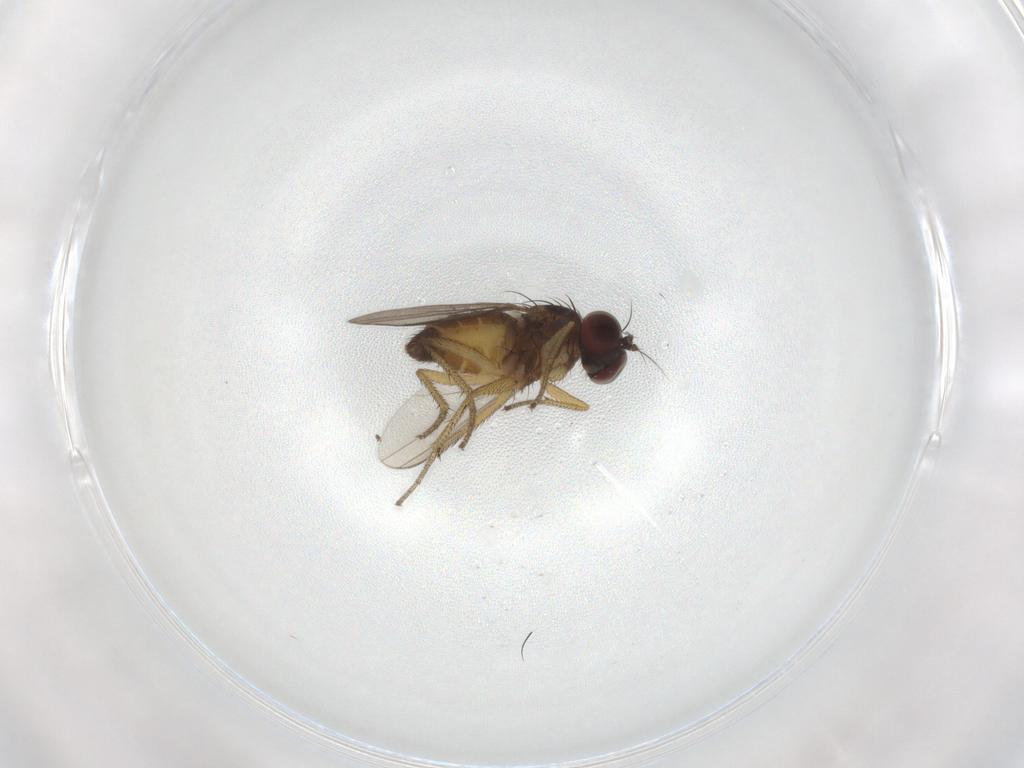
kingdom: Animalia
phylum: Arthropoda
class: Insecta
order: Diptera
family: Dolichopodidae
